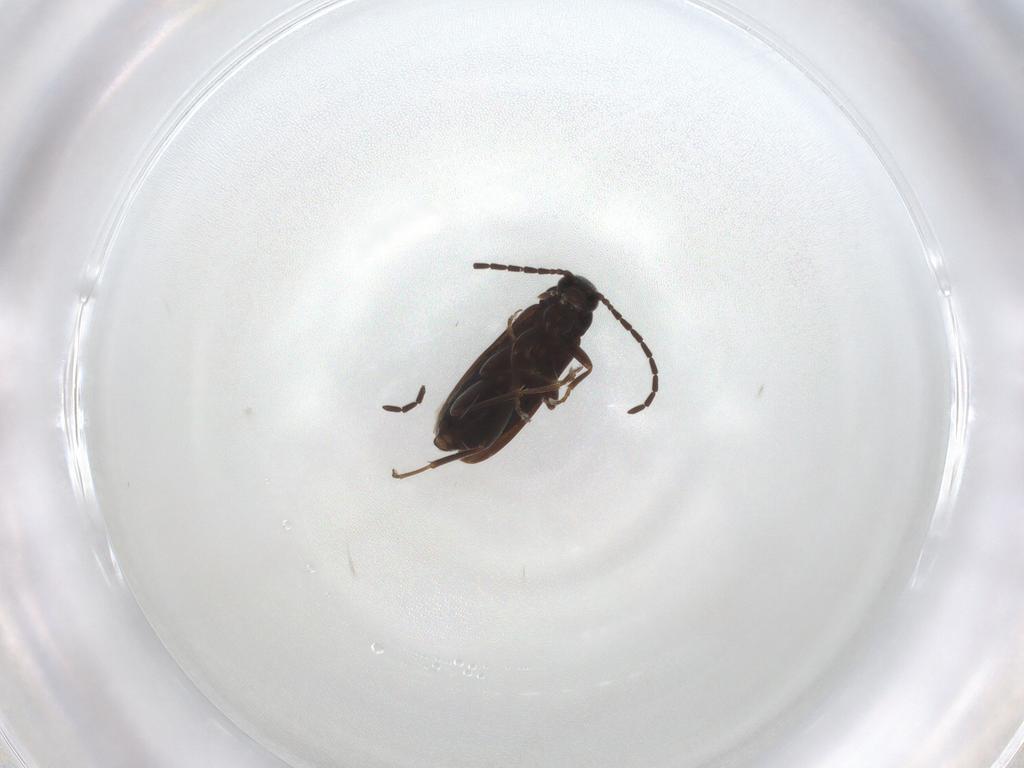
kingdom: Animalia
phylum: Arthropoda
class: Insecta
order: Coleoptera
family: Scraptiidae
